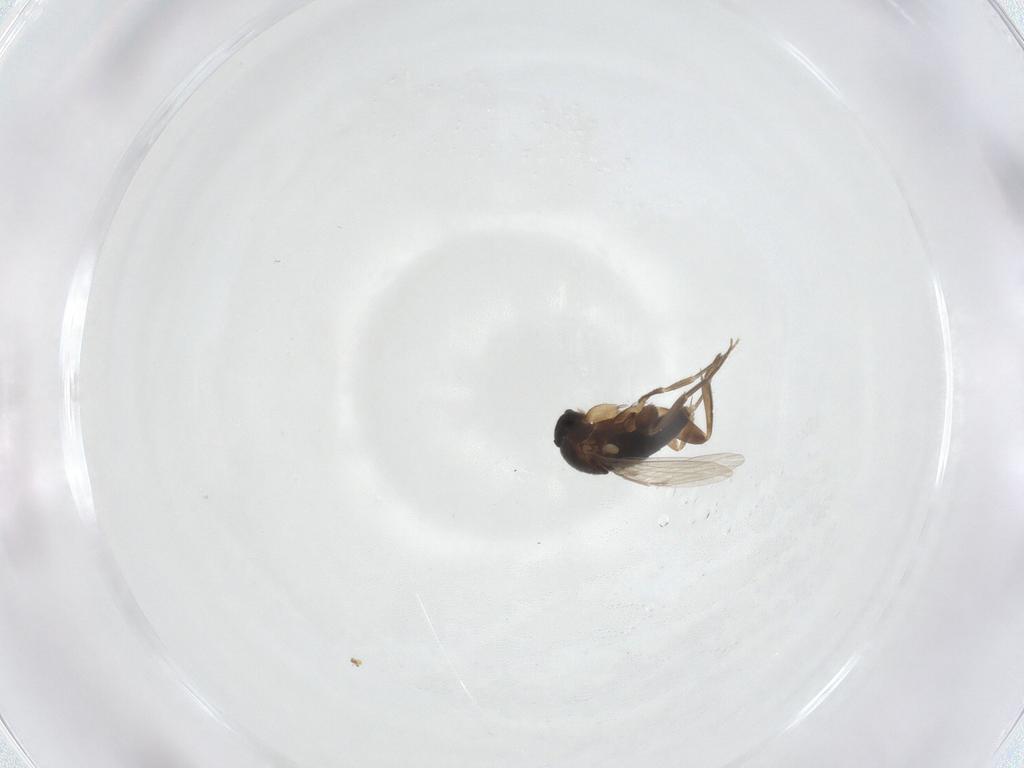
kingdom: Animalia
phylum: Arthropoda
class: Insecta
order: Diptera
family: Phoridae
